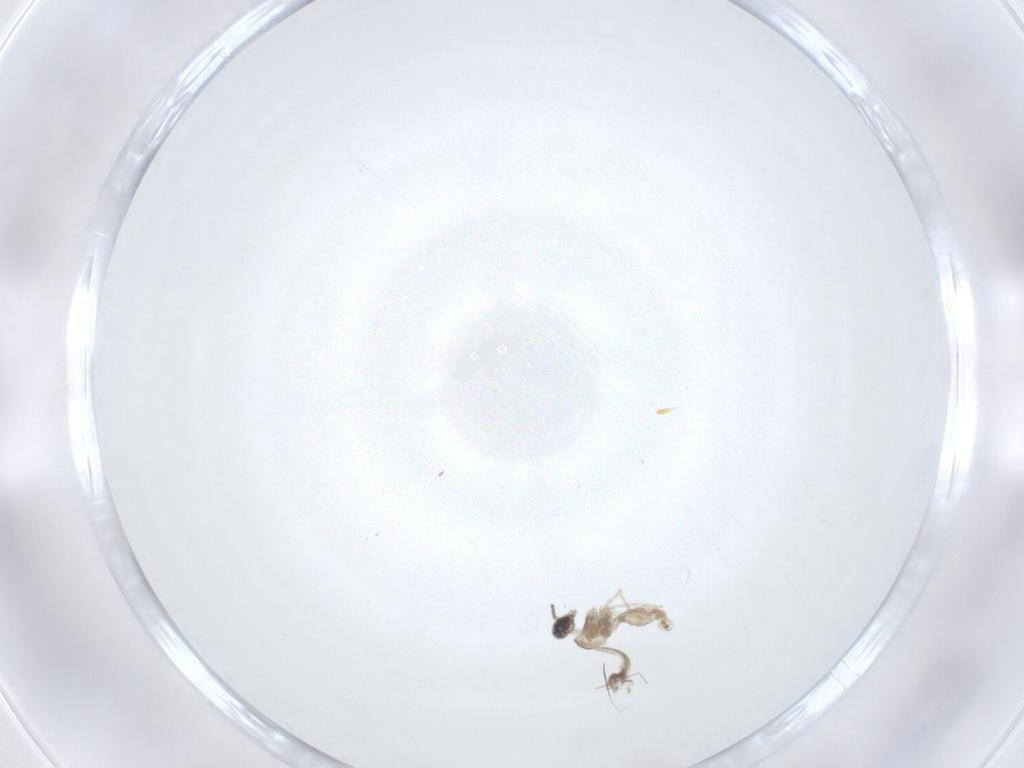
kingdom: Animalia
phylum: Arthropoda
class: Insecta
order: Diptera
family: Cecidomyiidae
